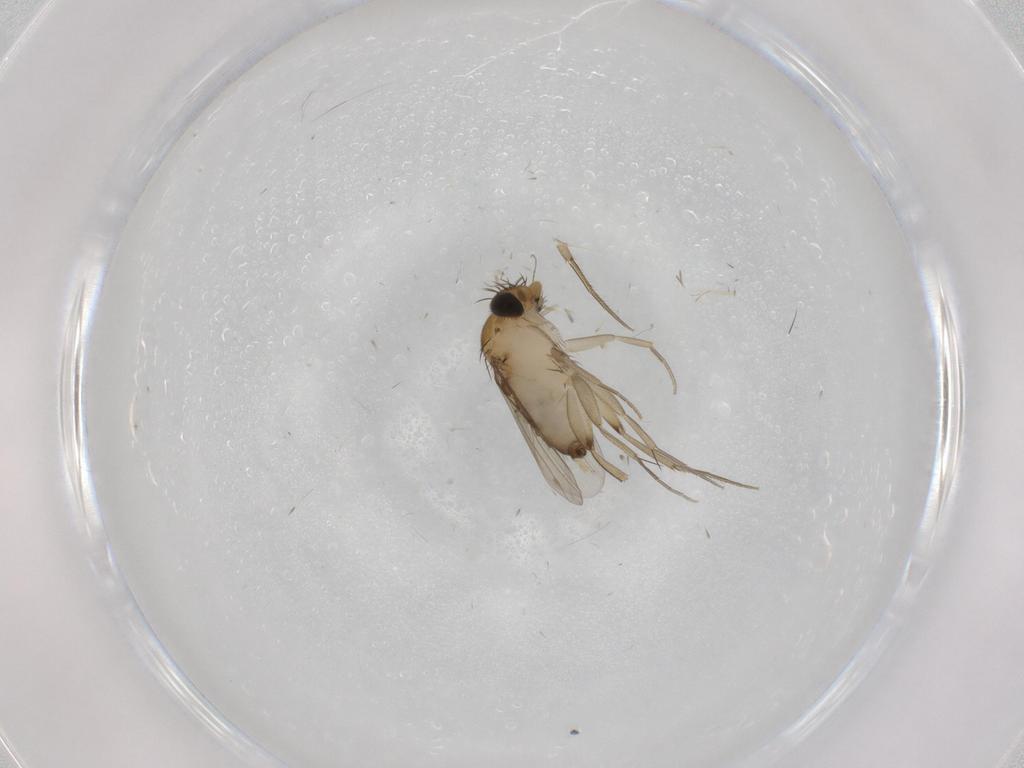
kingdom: Animalia
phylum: Arthropoda
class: Insecta
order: Diptera
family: Phoridae
